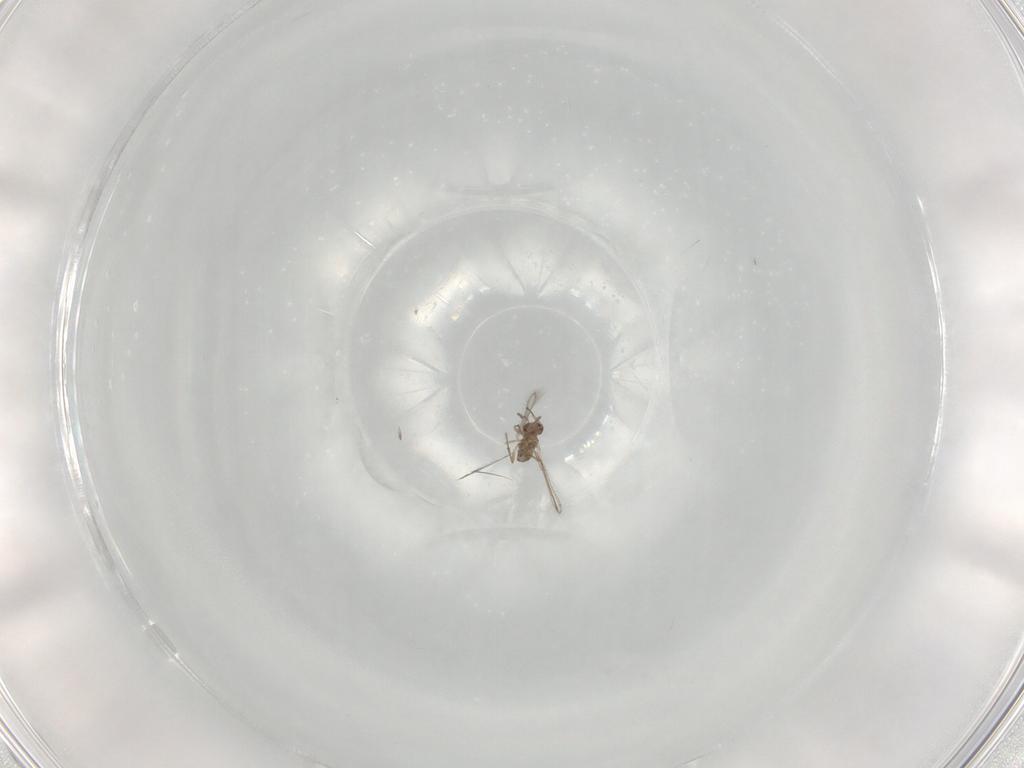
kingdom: Animalia
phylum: Arthropoda
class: Insecta
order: Hymenoptera
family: Mymaridae
